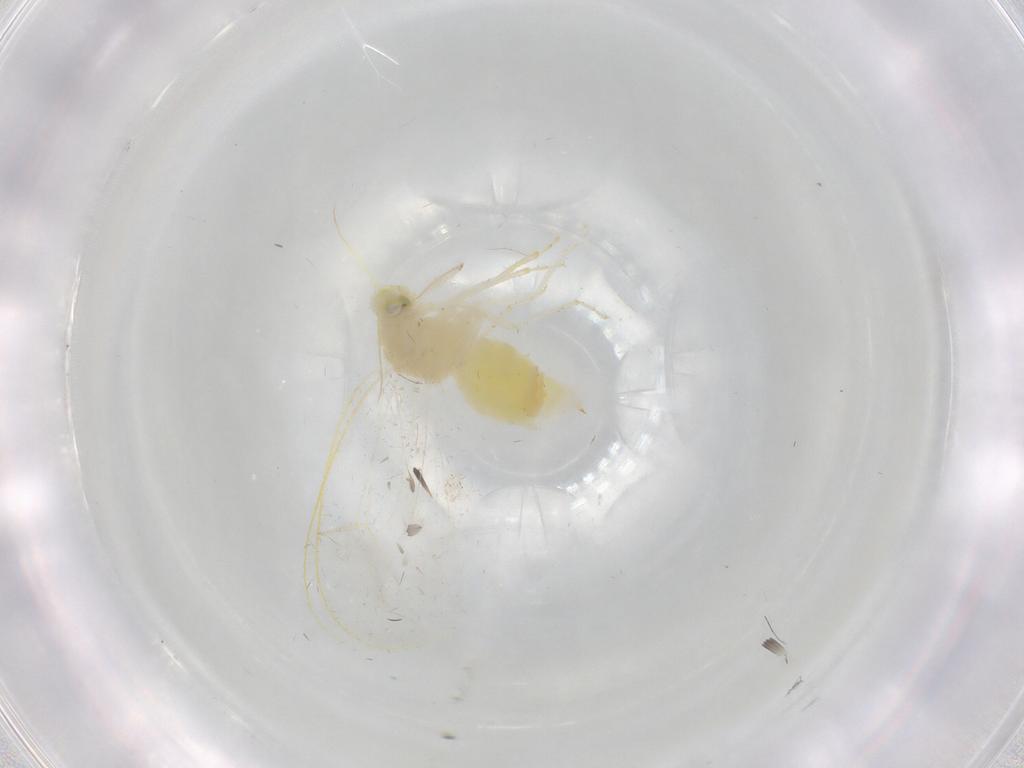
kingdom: Animalia
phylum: Arthropoda
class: Insecta
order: Hemiptera
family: Aleyrodidae
